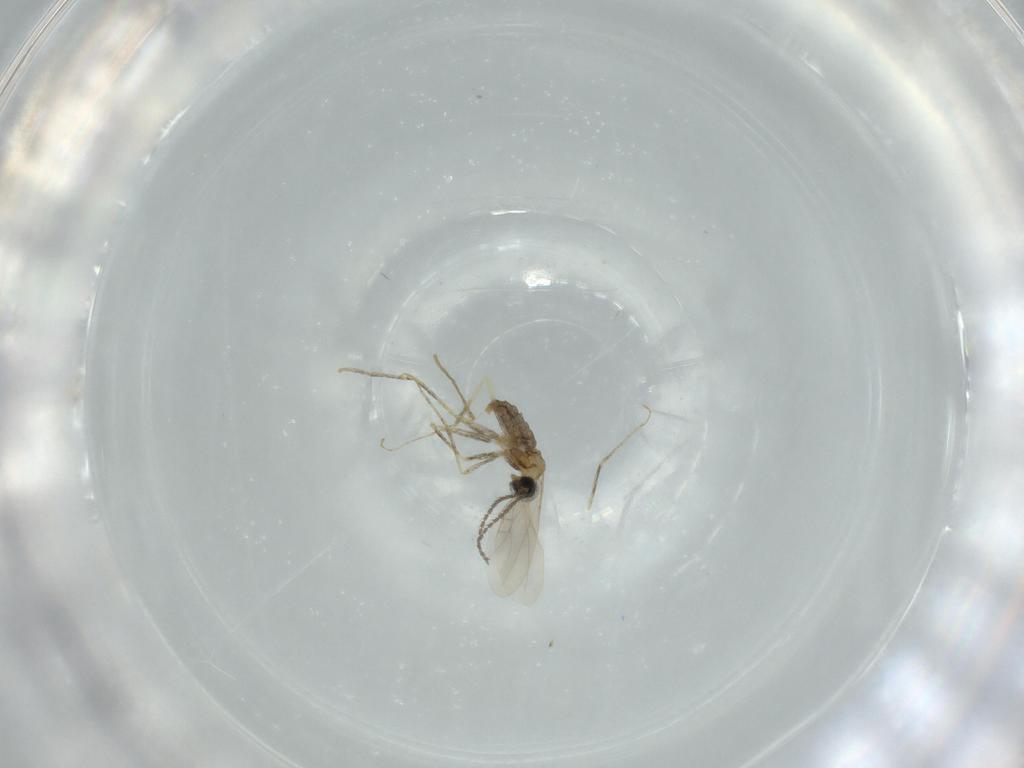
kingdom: Animalia
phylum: Arthropoda
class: Insecta
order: Diptera
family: Cecidomyiidae
